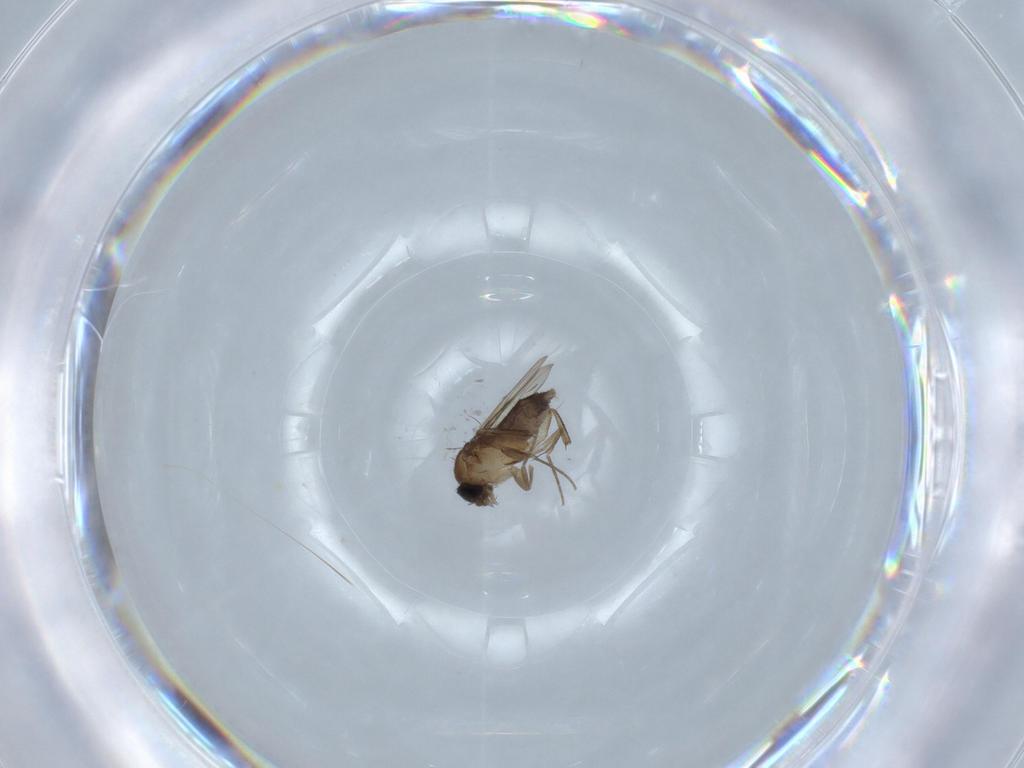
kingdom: Animalia
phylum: Arthropoda
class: Insecta
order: Diptera
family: Phoridae
